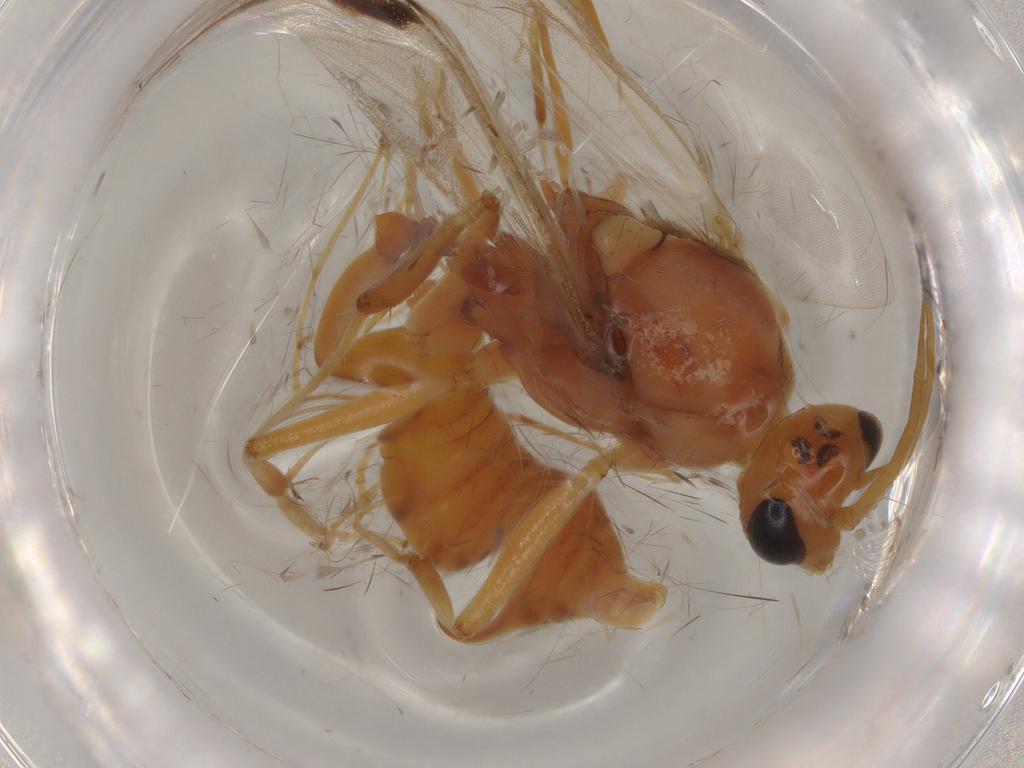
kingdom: Animalia
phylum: Arthropoda
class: Insecta
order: Hymenoptera
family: Formicidae
